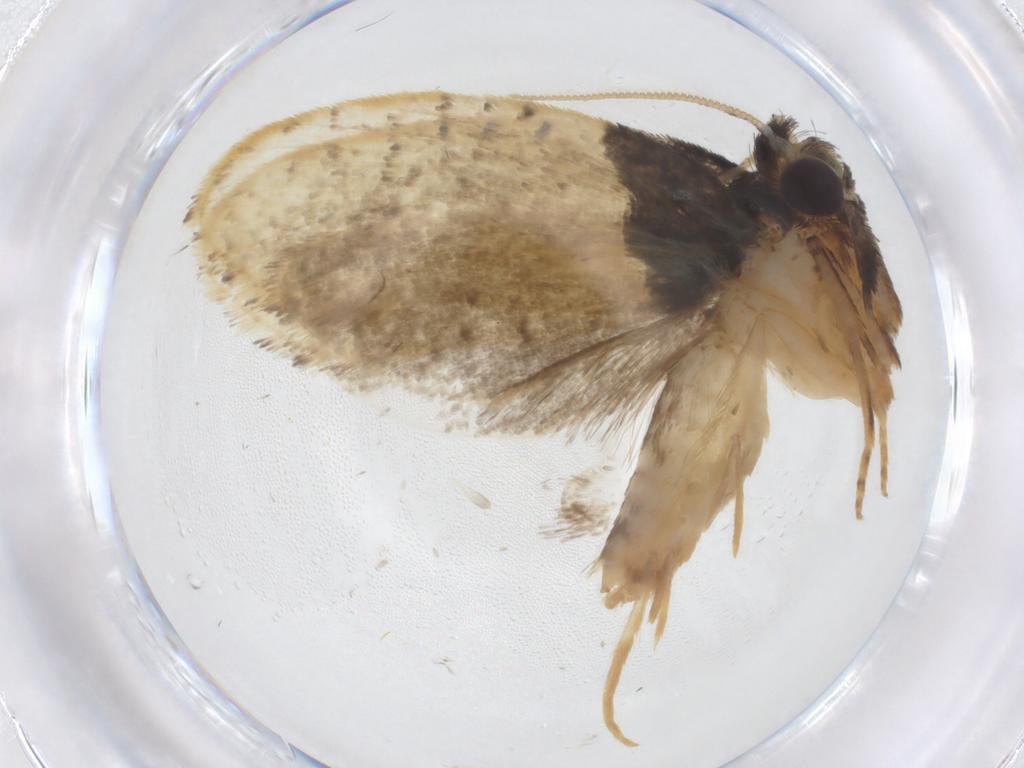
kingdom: Animalia
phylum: Arthropoda
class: Insecta
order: Lepidoptera
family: Psychidae
